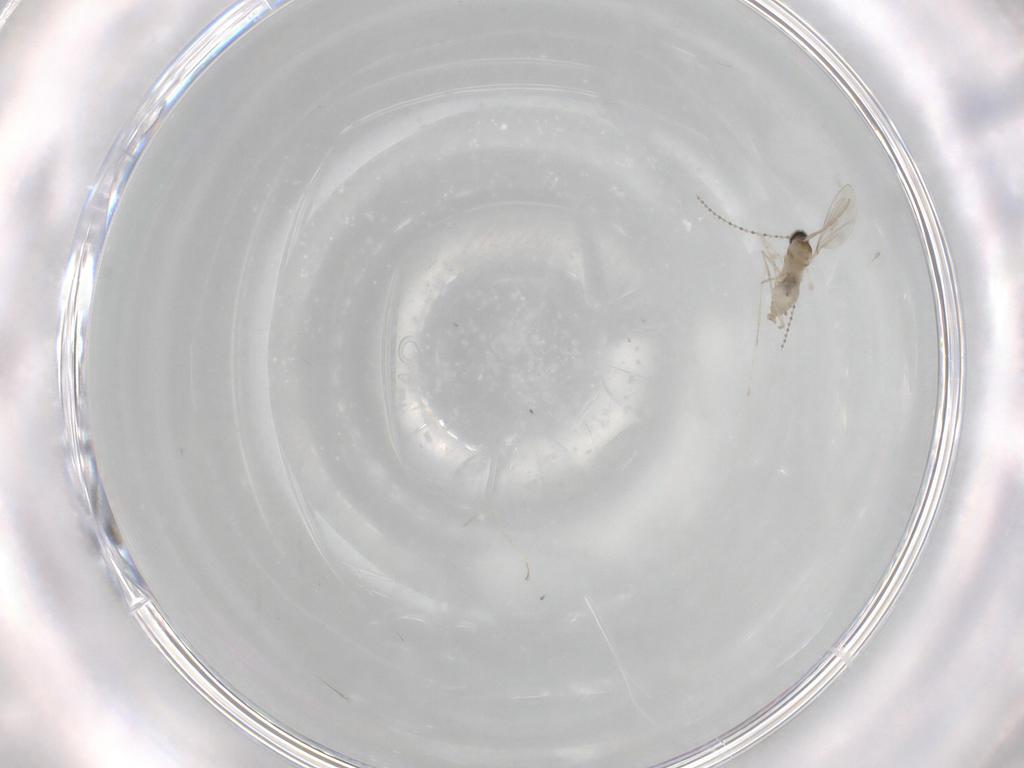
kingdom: Animalia
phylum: Arthropoda
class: Insecta
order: Diptera
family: Cecidomyiidae
